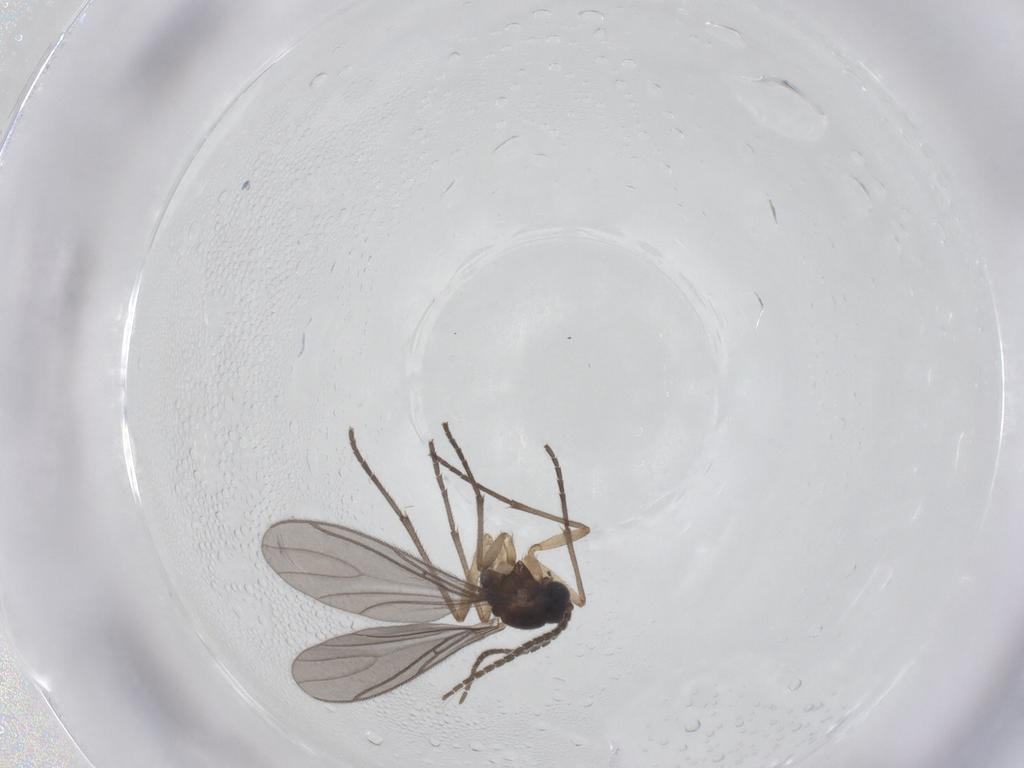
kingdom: Animalia
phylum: Arthropoda
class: Insecta
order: Diptera
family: Sciaridae
